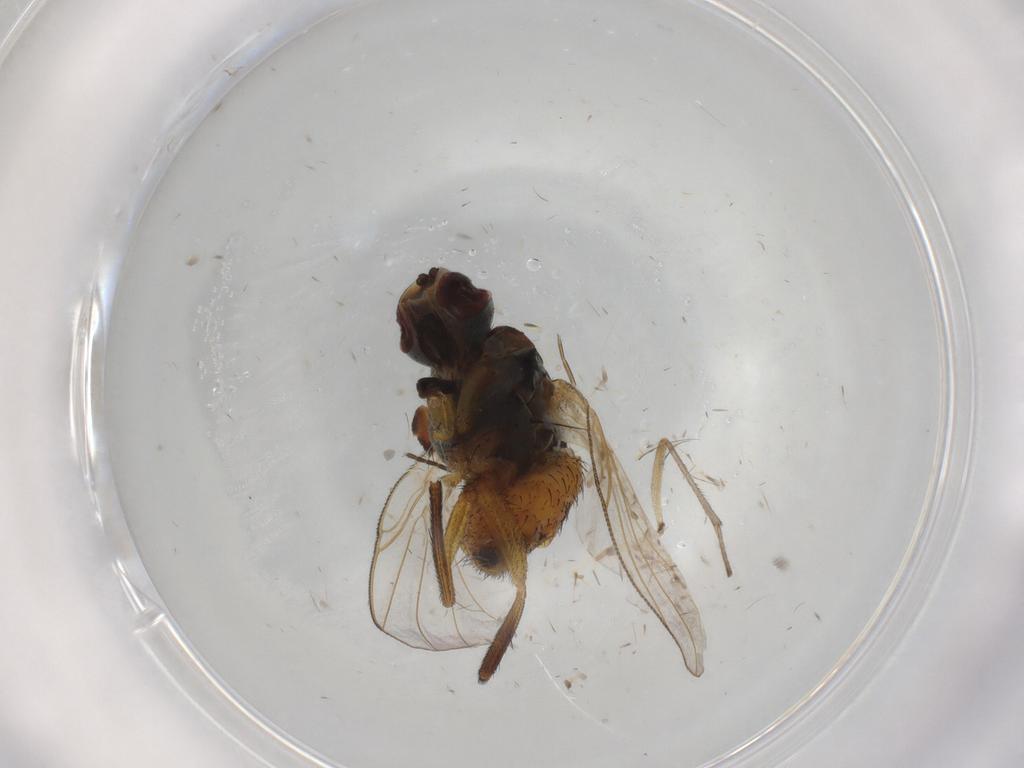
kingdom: Animalia
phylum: Arthropoda
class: Insecta
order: Diptera
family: Muscidae
